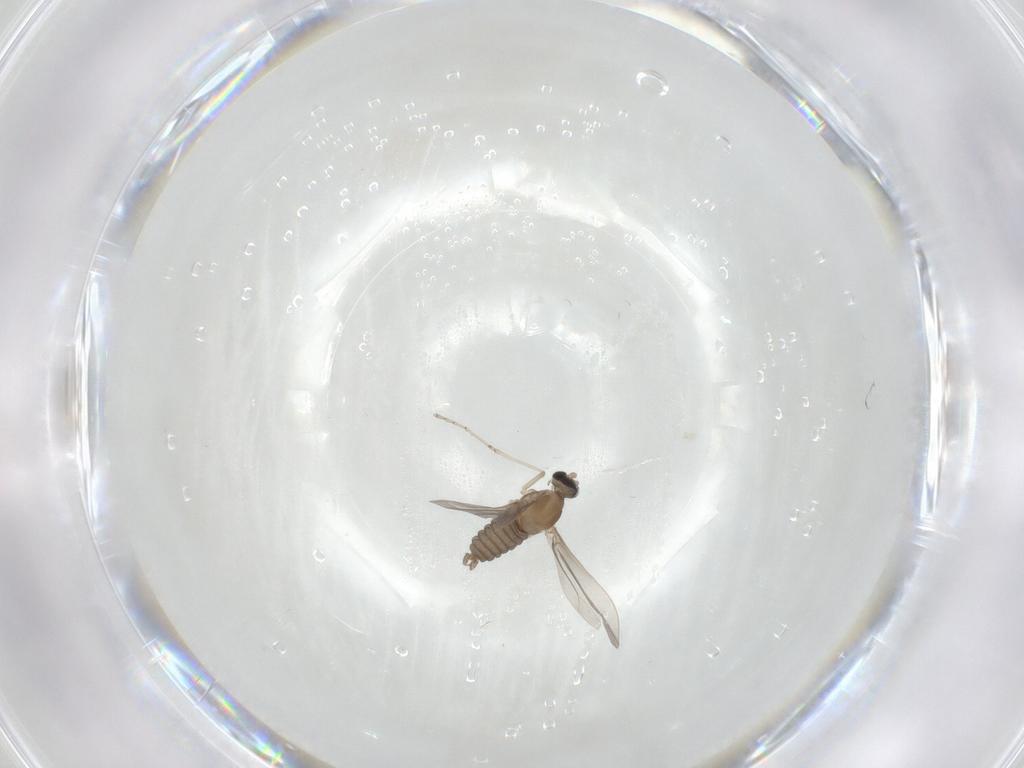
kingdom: Animalia
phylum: Arthropoda
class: Insecta
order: Diptera
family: Cecidomyiidae
